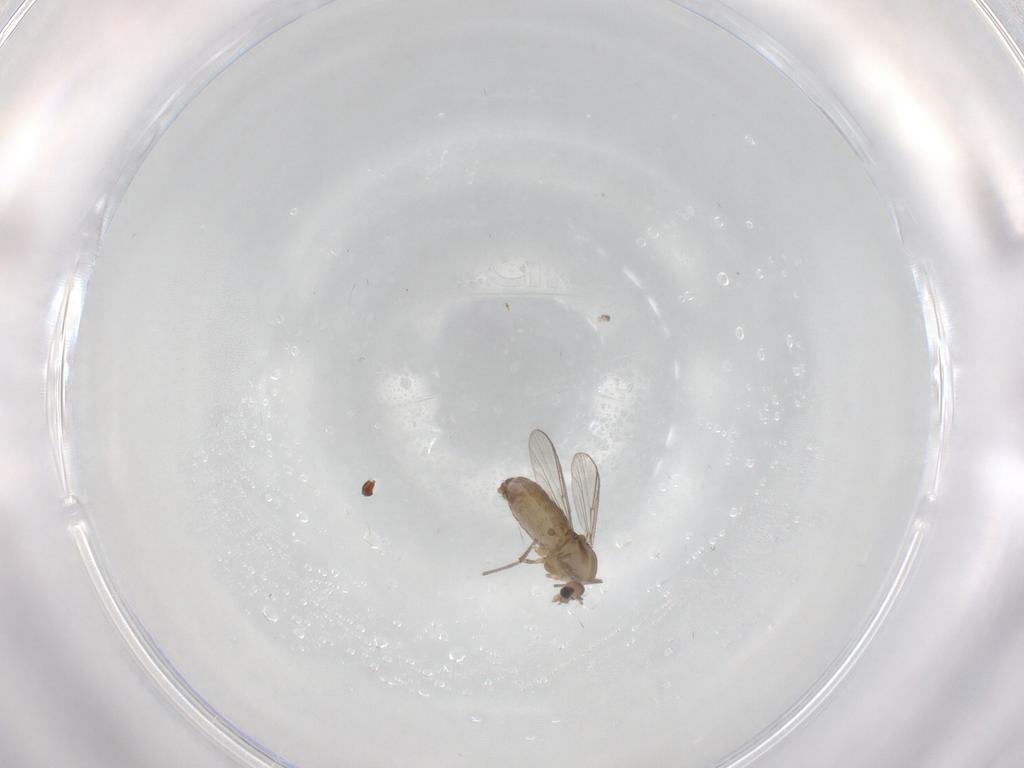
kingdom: Animalia
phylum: Arthropoda
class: Insecta
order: Diptera
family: Chironomidae
